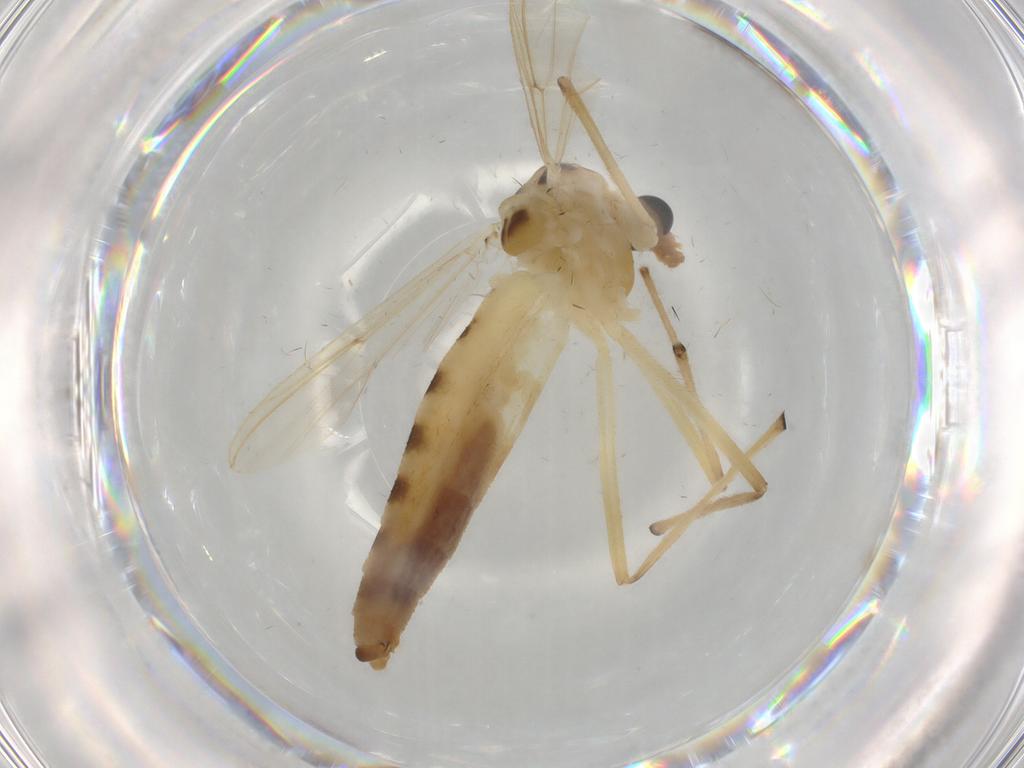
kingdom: Animalia
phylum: Arthropoda
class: Insecta
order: Diptera
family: Chironomidae
